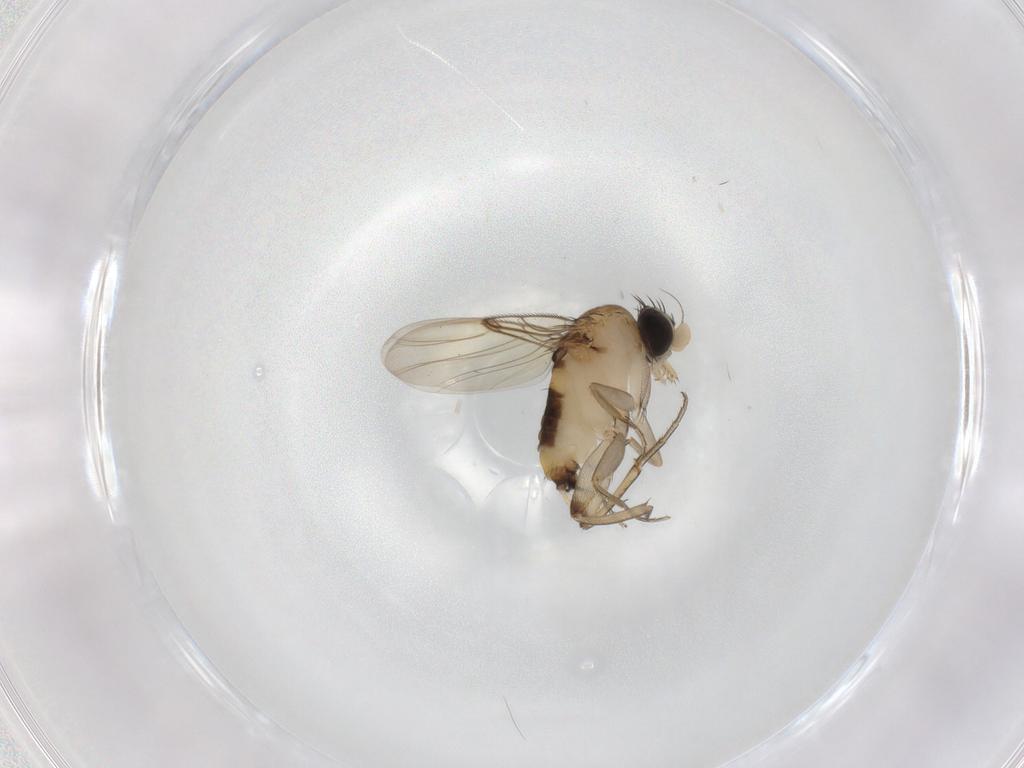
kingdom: Animalia
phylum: Arthropoda
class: Insecta
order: Diptera
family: Phoridae
